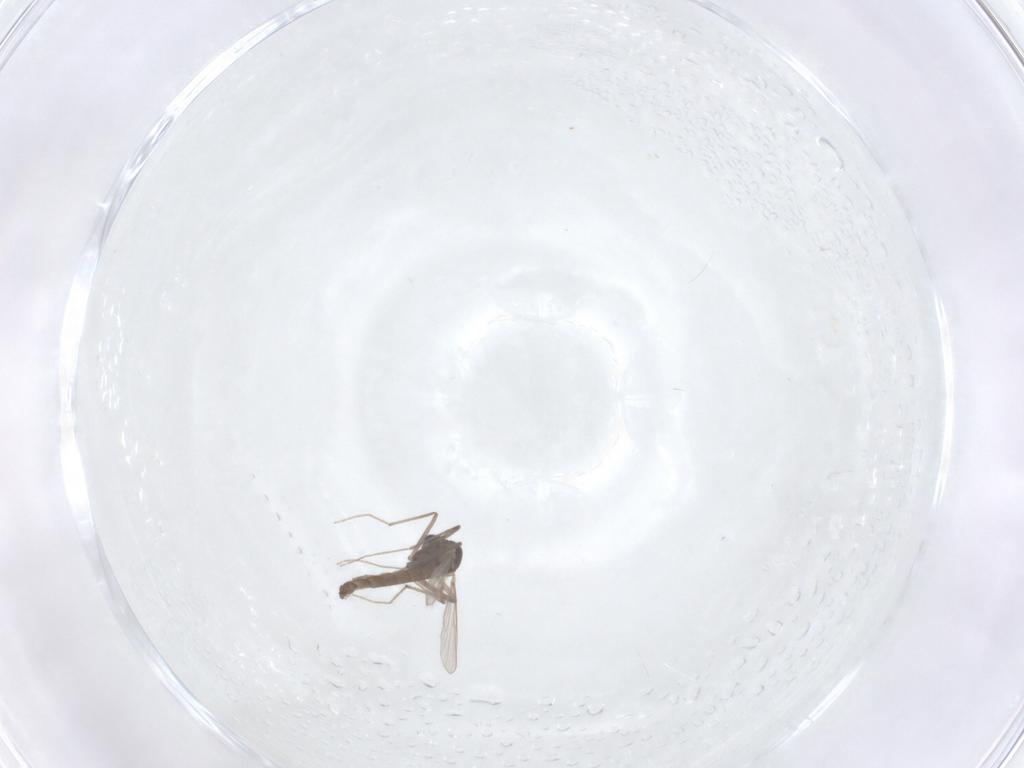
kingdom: Animalia
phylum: Arthropoda
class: Insecta
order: Diptera
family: Chironomidae
